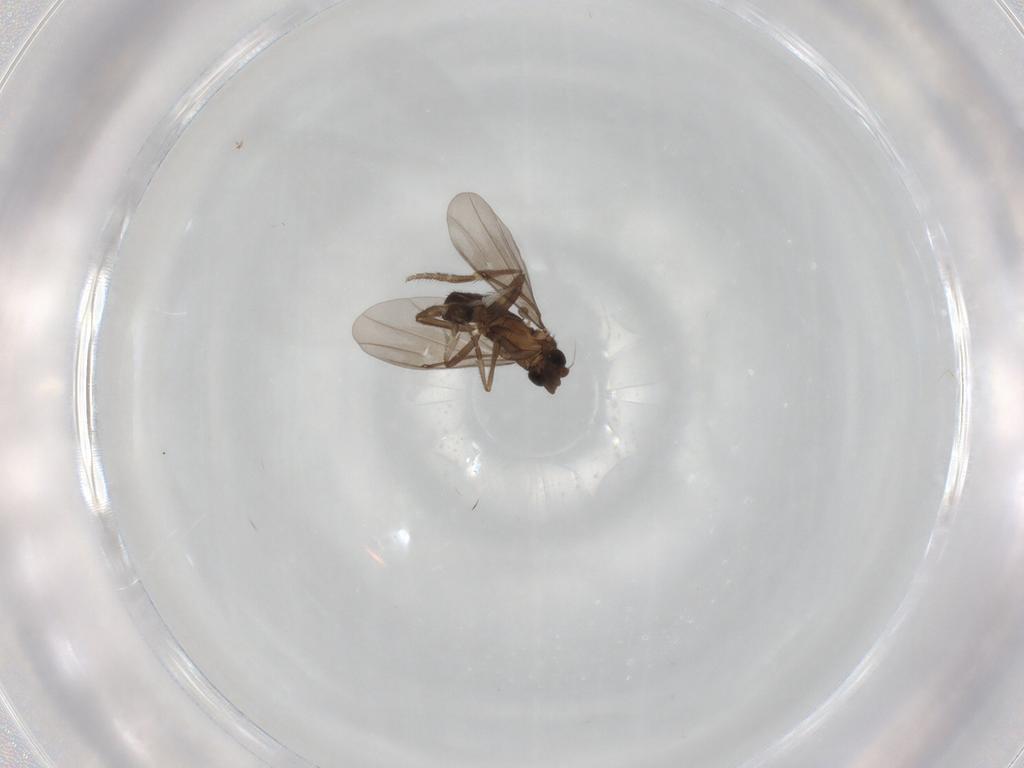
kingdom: Animalia
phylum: Arthropoda
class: Insecta
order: Diptera
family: Phoridae
